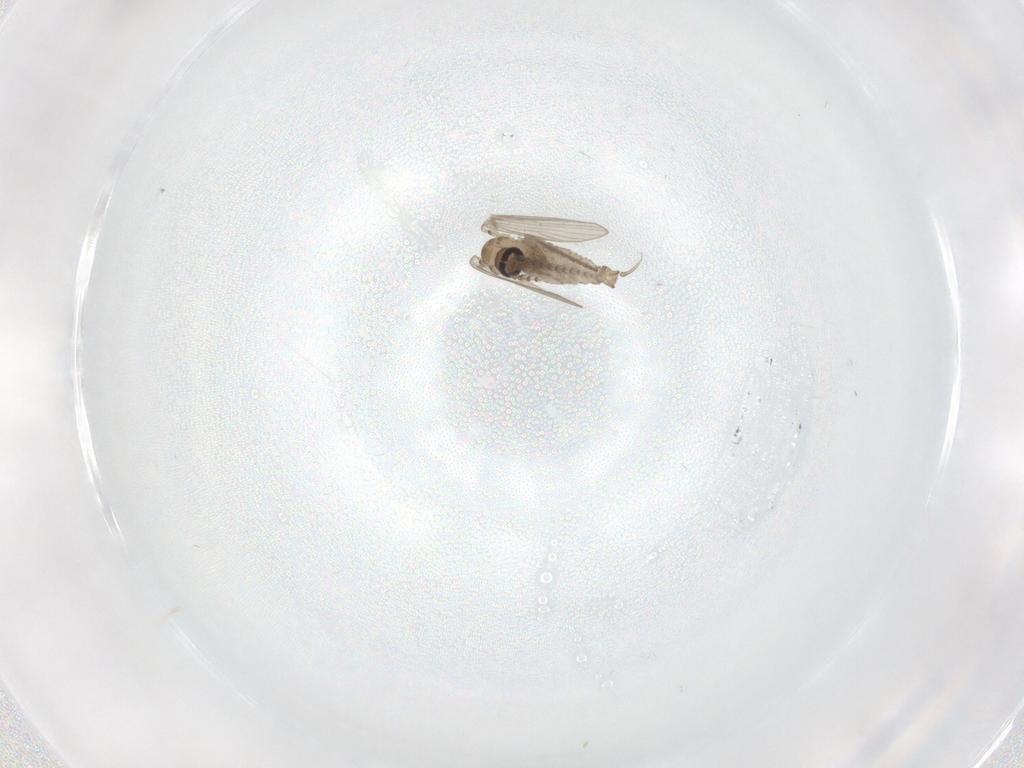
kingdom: Animalia
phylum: Arthropoda
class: Insecta
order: Diptera
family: Psychodidae
